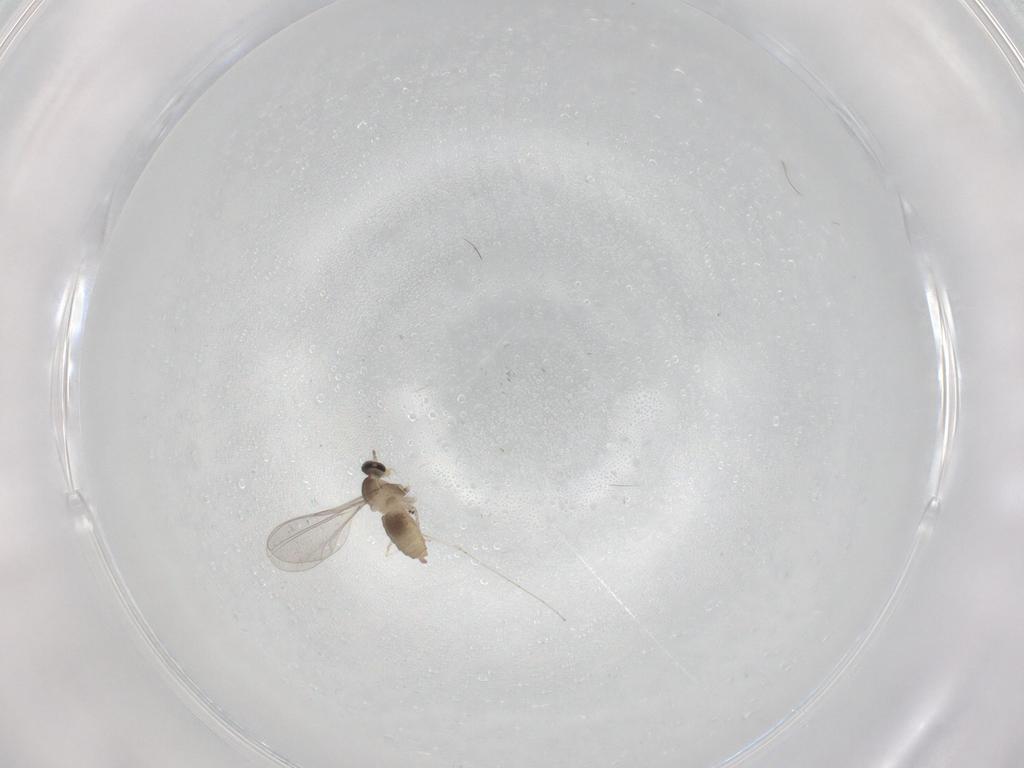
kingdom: Animalia
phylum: Arthropoda
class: Insecta
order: Diptera
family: Cecidomyiidae
